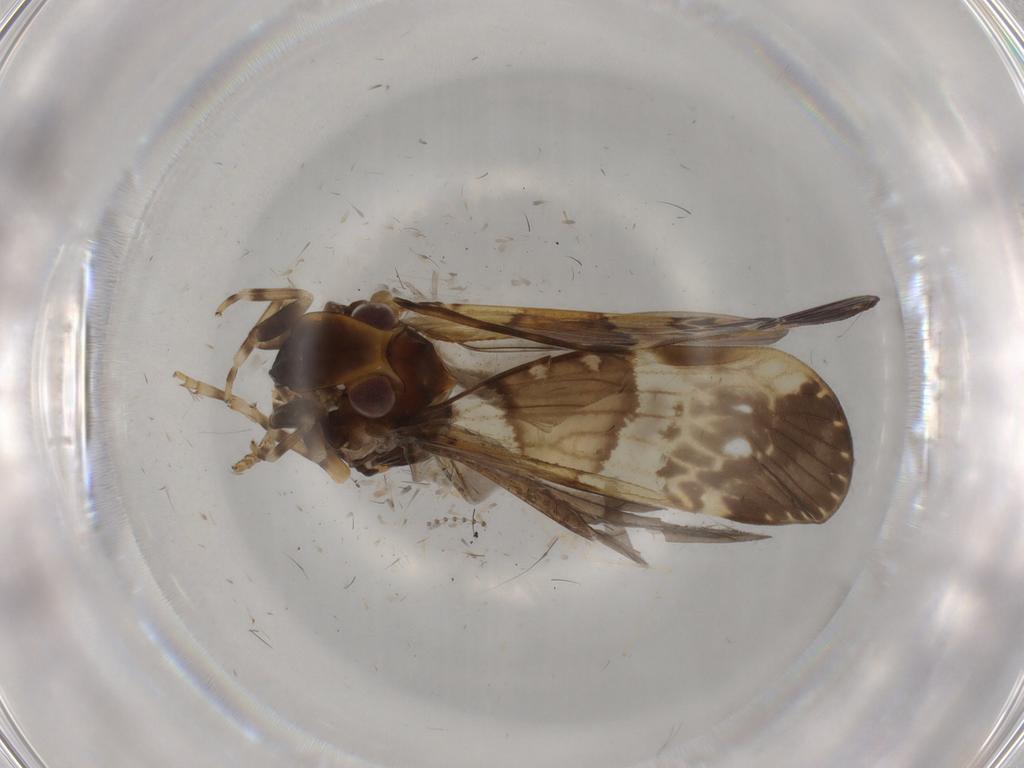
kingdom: Animalia
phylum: Arthropoda
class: Insecta
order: Hemiptera
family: Cixiidae
